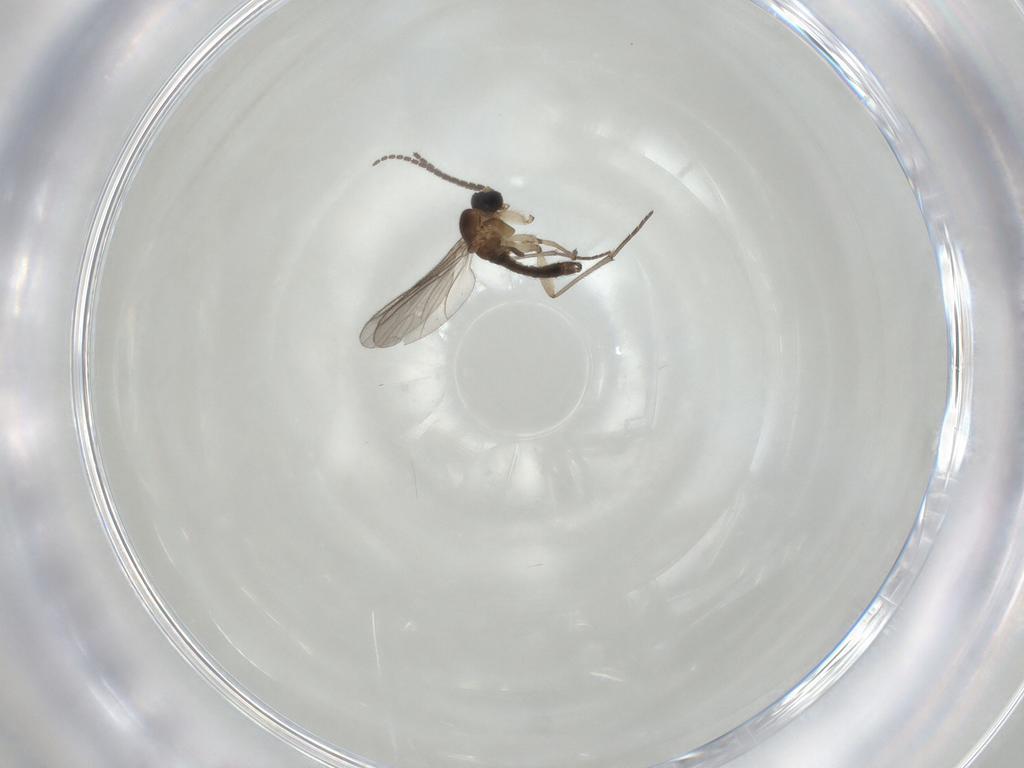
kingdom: Animalia
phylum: Arthropoda
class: Insecta
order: Diptera
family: Sciaridae
